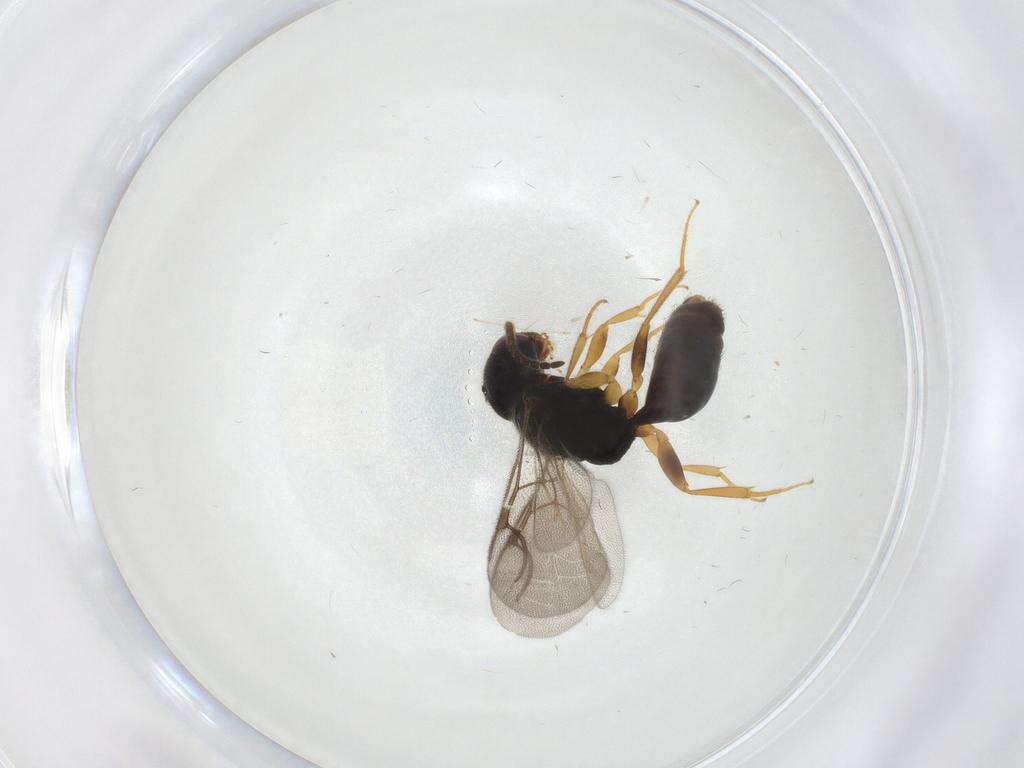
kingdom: Animalia
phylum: Arthropoda
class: Insecta
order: Hymenoptera
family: Bethylidae
